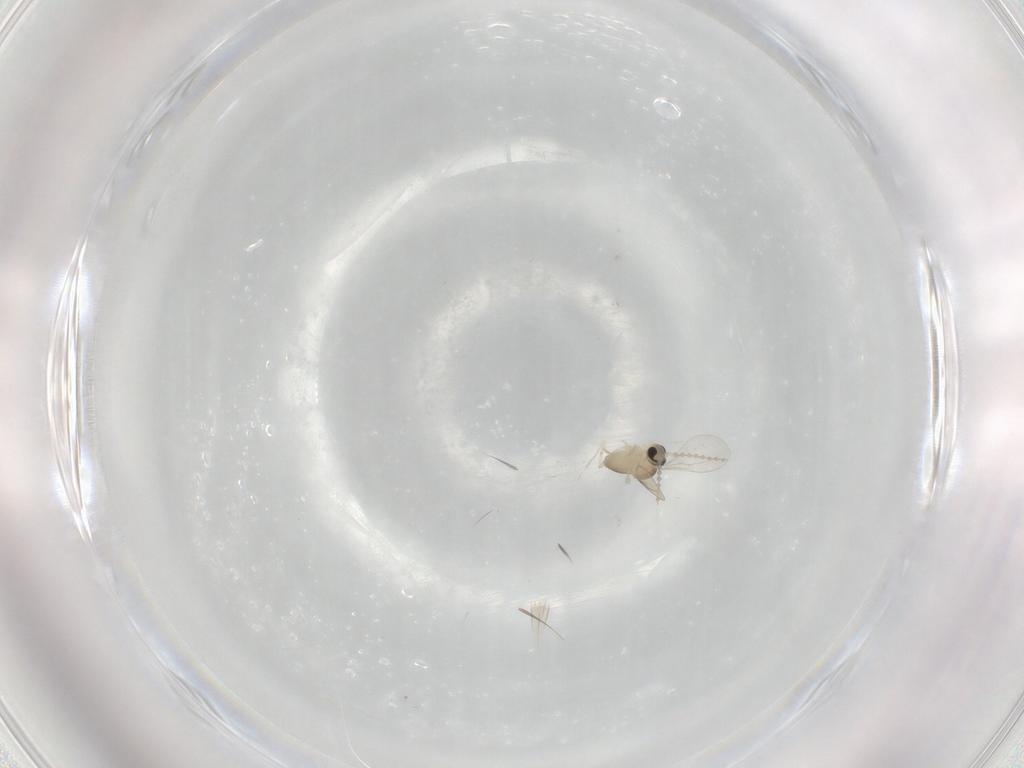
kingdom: Animalia
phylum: Arthropoda
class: Insecta
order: Diptera
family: Cecidomyiidae
